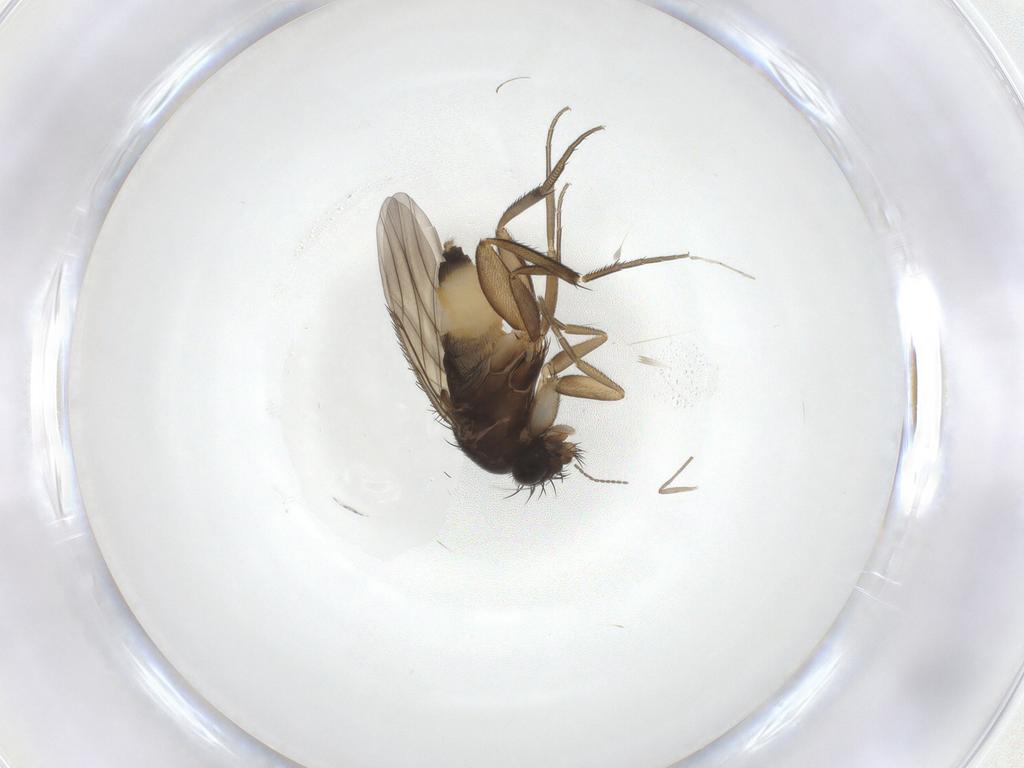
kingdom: Animalia
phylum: Arthropoda
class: Insecta
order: Diptera
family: Phoridae
